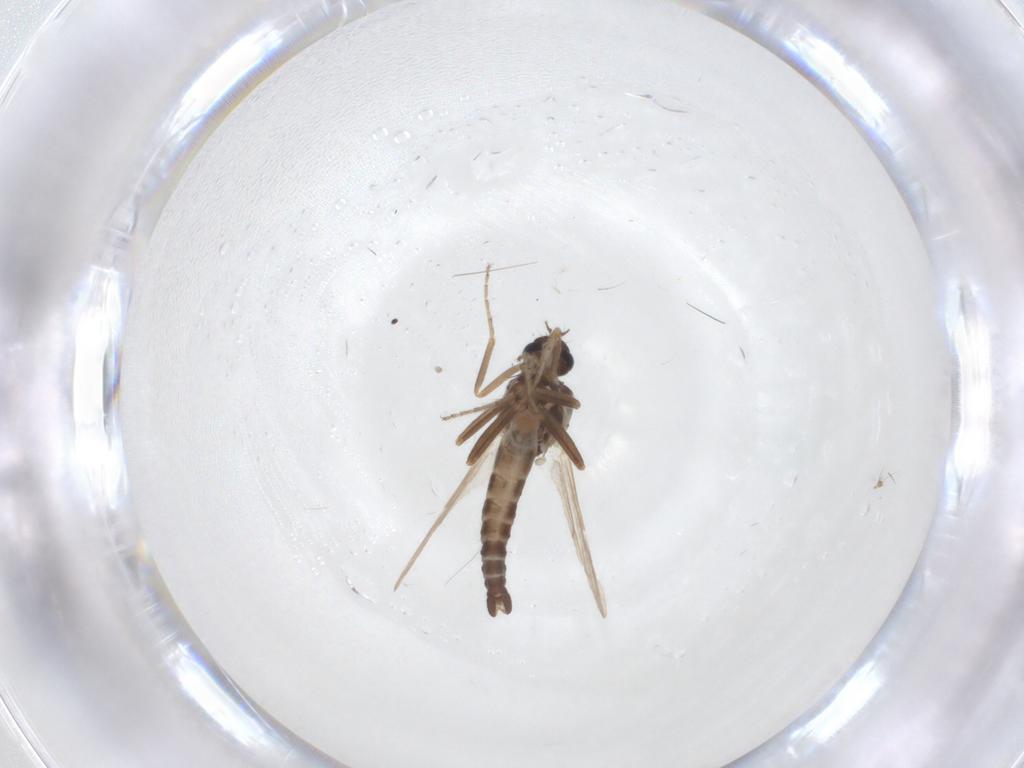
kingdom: Animalia
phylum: Arthropoda
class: Insecta
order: Diptera
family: Ceratopogonidae
